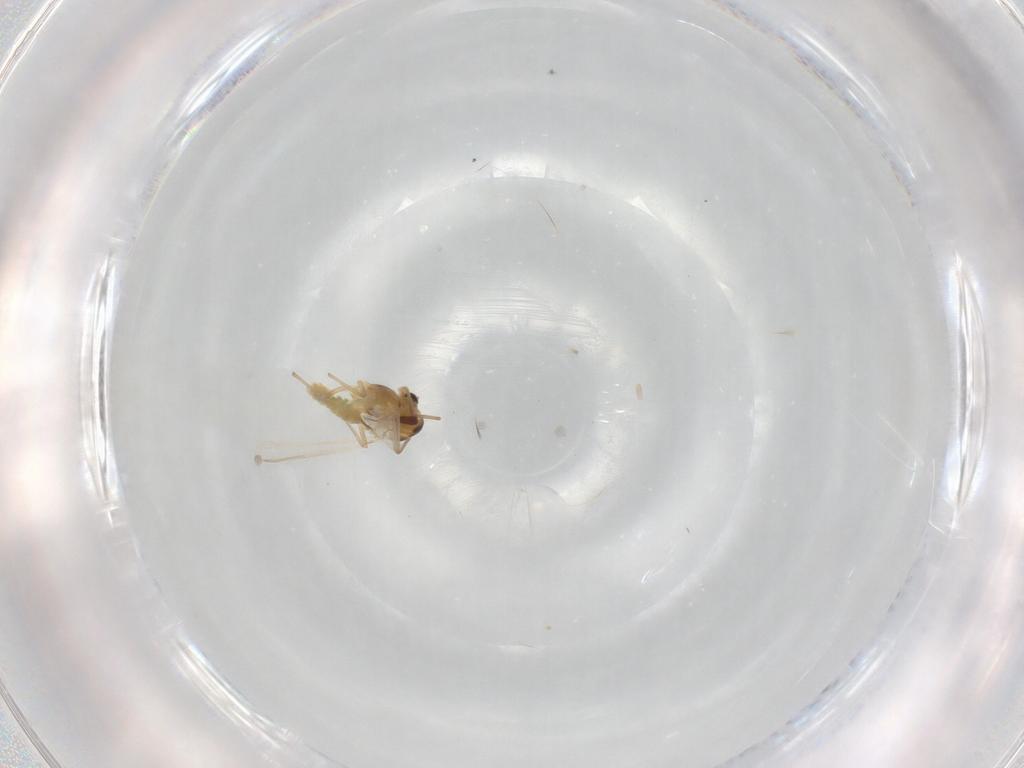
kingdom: Animalia
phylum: Arthropoda
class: Insecta
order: Diptera
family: Chironomidae
